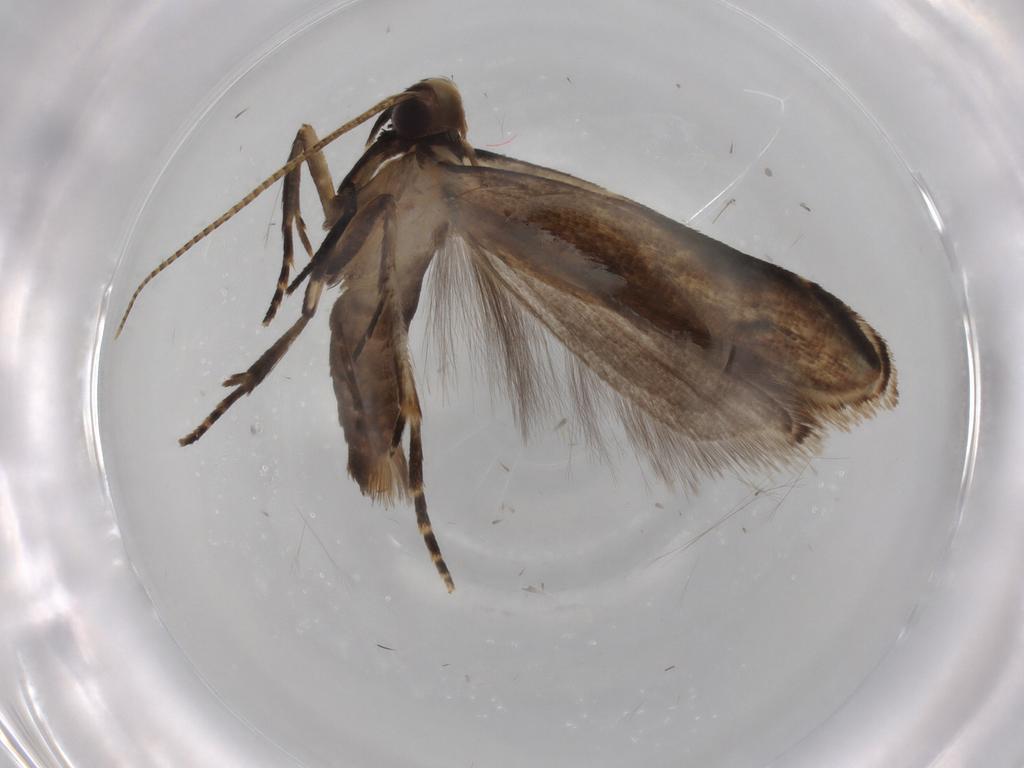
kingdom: Animalia
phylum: Arthropoda
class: Insecta
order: Lepidoptera
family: Gelechiidae
